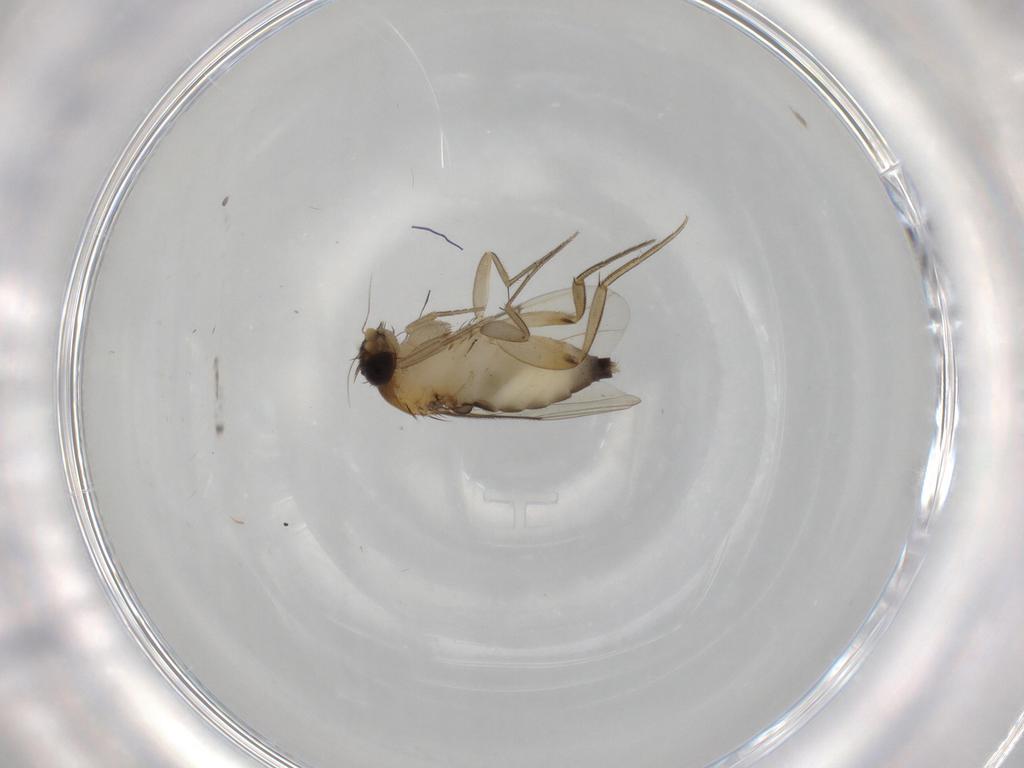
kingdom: Animalia
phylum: Arthropoda
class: Insecta
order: Diptera
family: Phoridae
